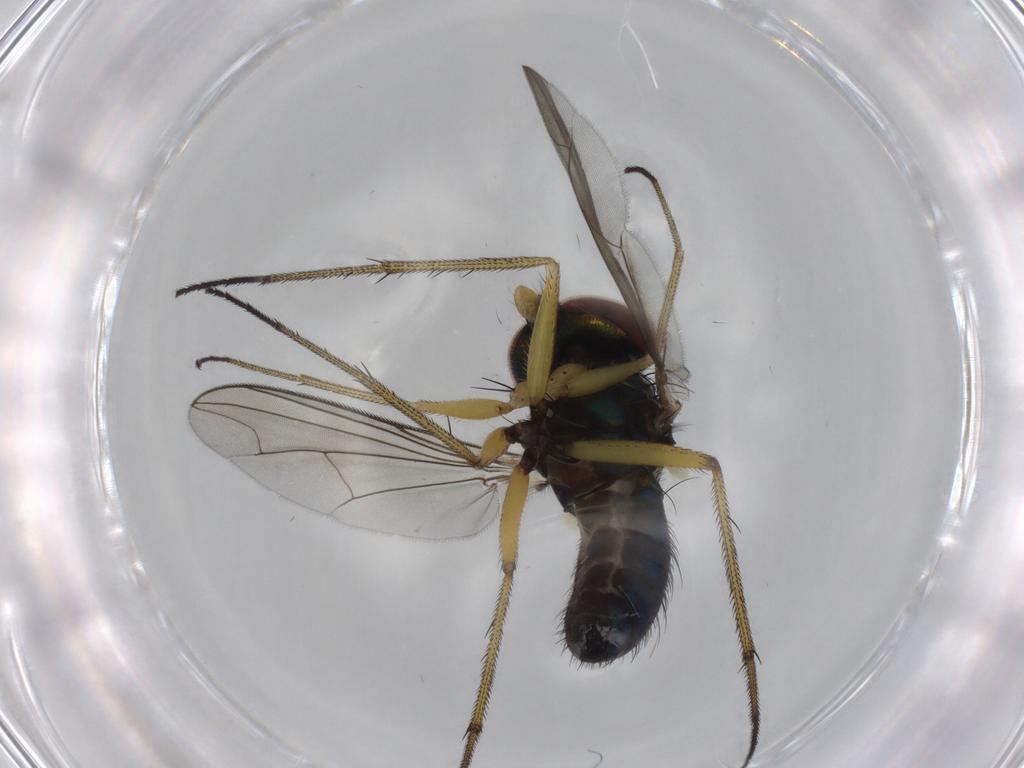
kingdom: Animalia
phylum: Arthropoda
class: Insecta
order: Diptera
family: Dolichopodidae
